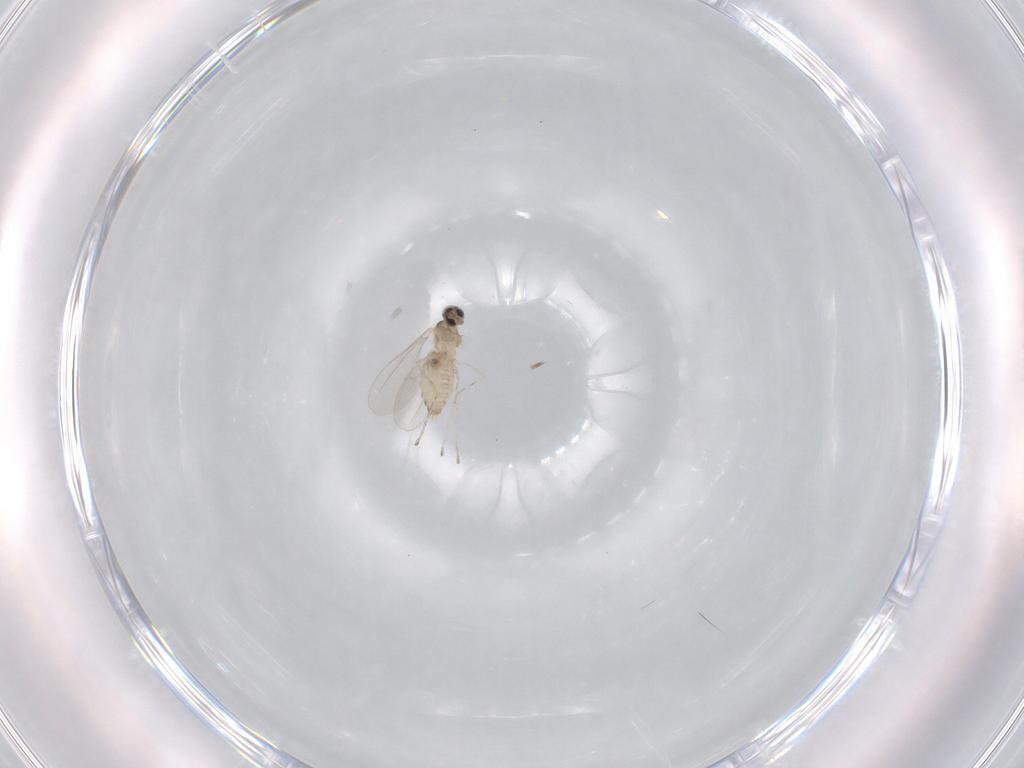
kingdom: Animalia
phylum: Arthropoda
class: Insecta
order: Diptera
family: Cecidomyiidae
